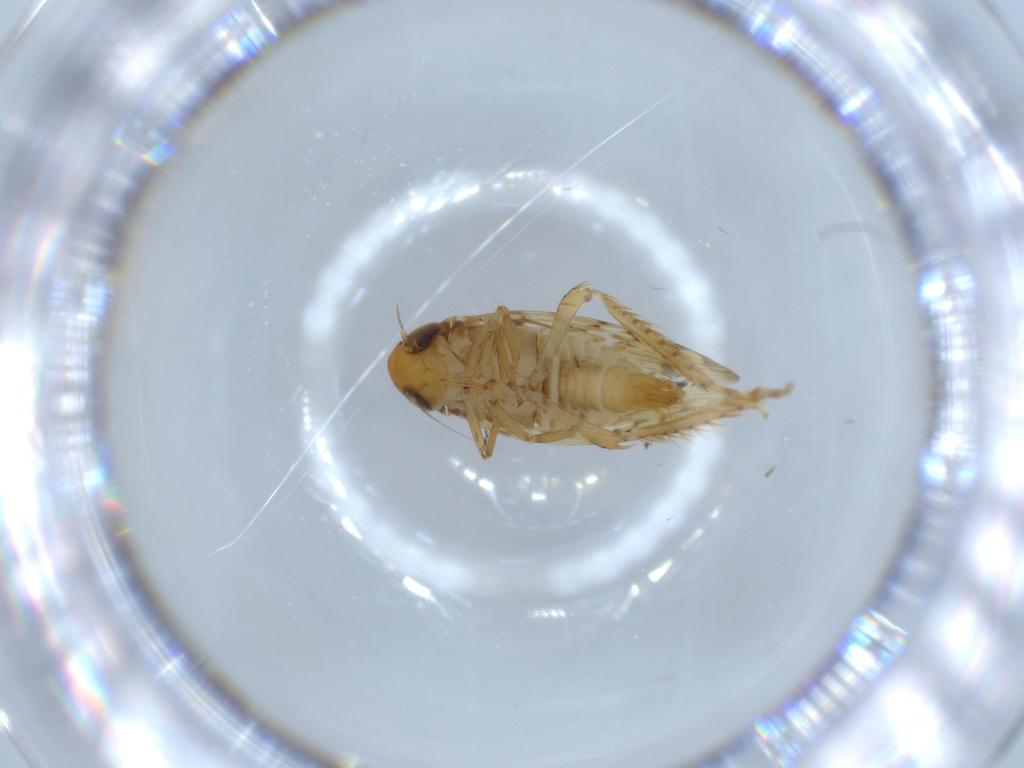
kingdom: Animalia
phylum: Arthropoda
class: Insecta
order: Hemiptera
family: Cicadellidae
